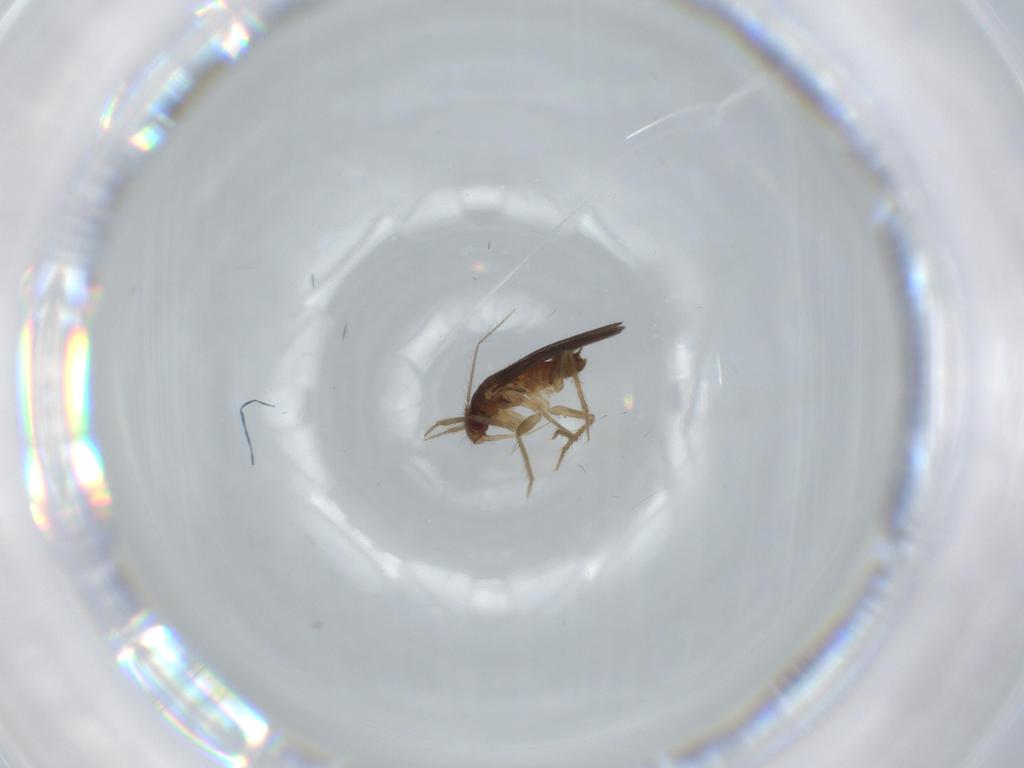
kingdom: Animalia
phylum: Arthropoda
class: Insecta
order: Hemiptera
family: Ceratocombidae
